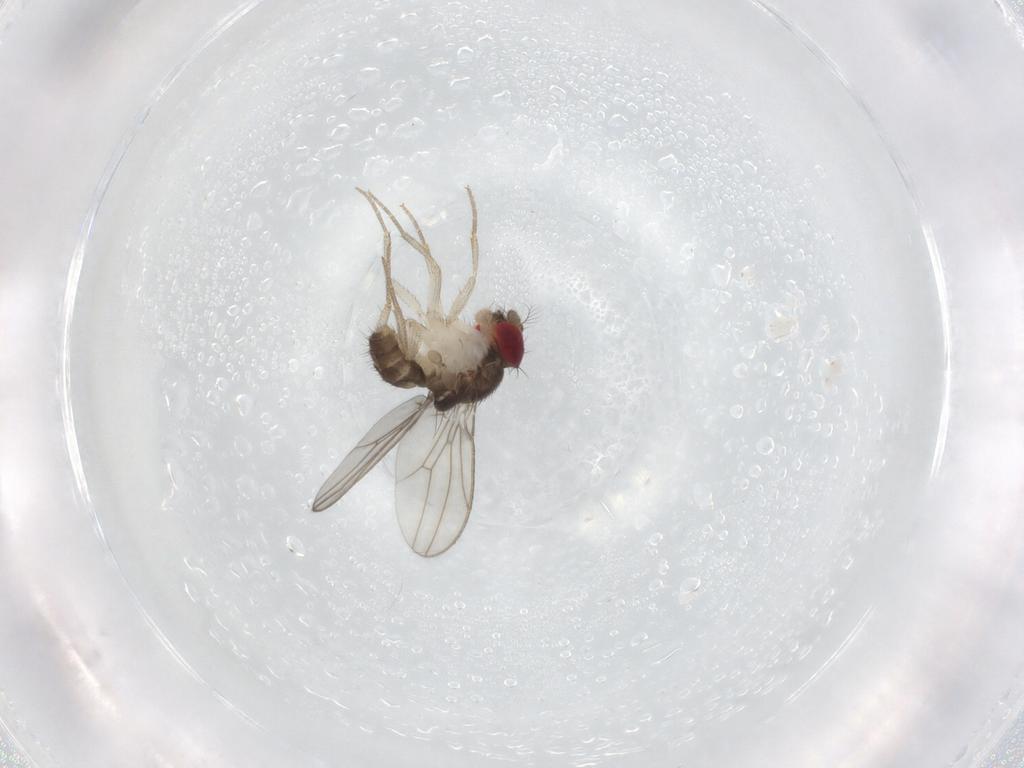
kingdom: Animalia
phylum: Arthropoda
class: Insecta
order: Diptera
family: Drosophilidae
